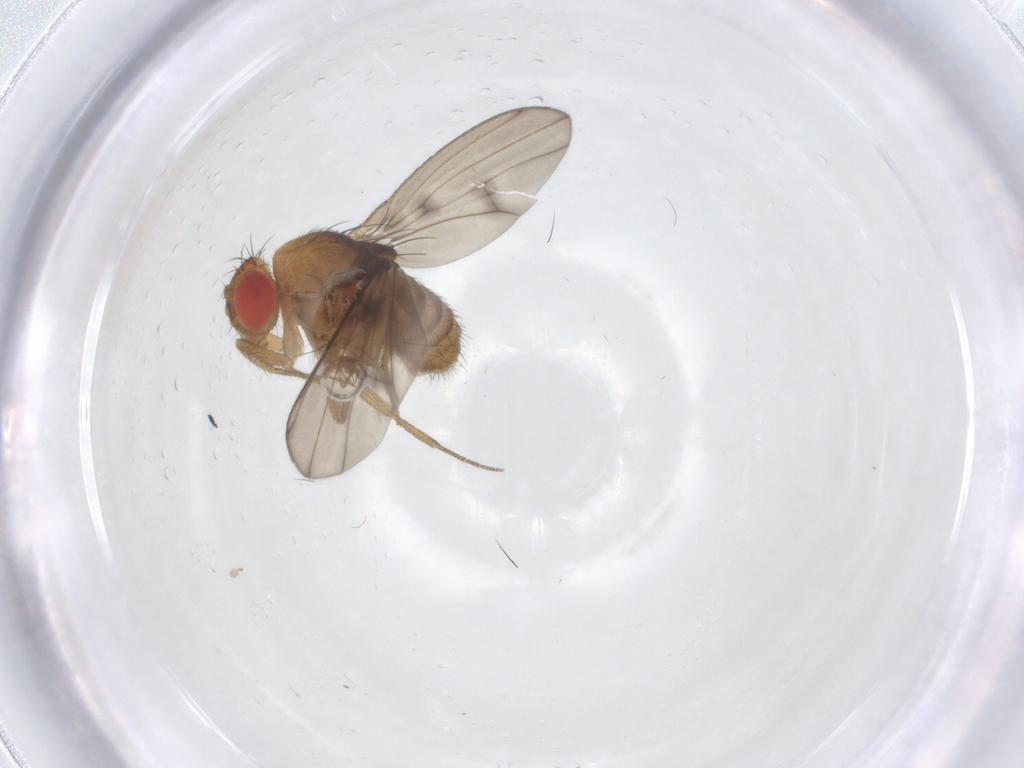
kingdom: Animalia
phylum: Arthropoda
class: Insecta
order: Diptera
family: Drosophilidae
